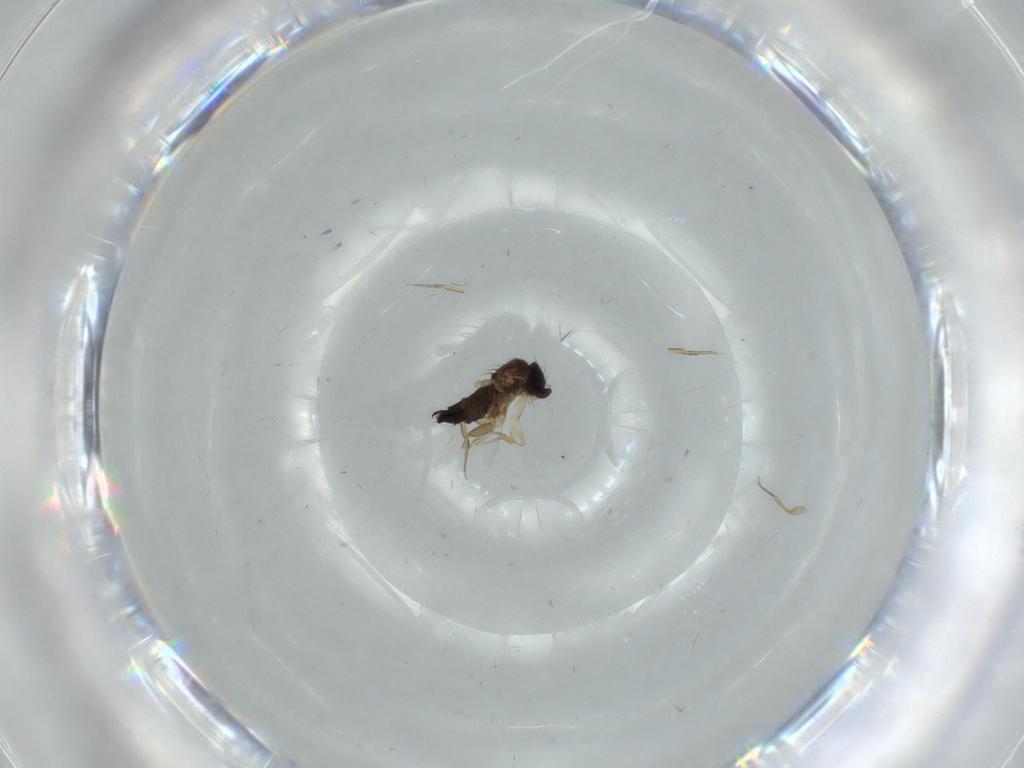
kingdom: Animalia
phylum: Arthropoda
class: Insecta
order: Diptera
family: Phoridae
